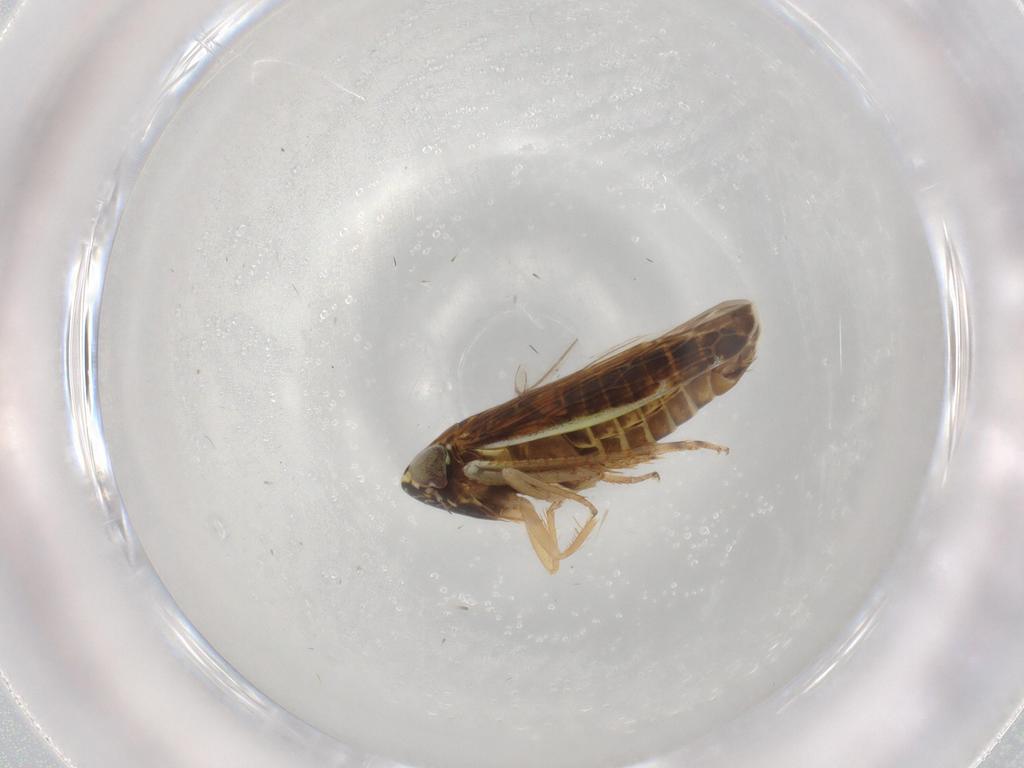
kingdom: Animalia
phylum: Arthropoda
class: Insecta
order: Hemiptera
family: Cicadellidae
